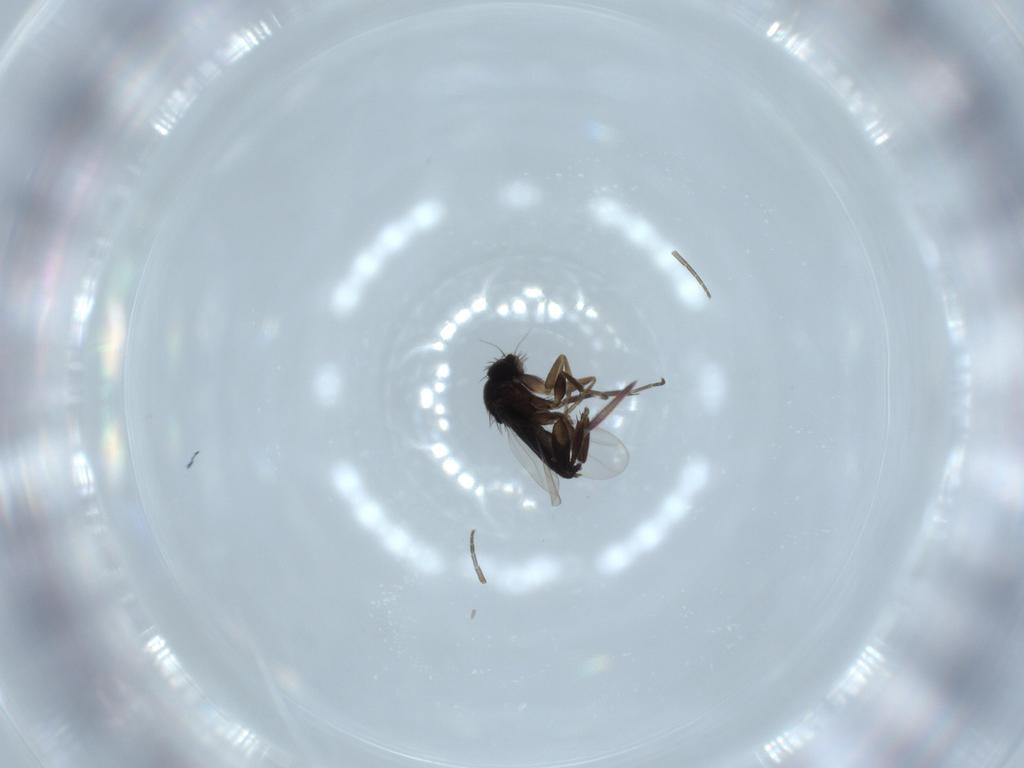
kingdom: Animalia
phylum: Arthropoda
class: Insecta
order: Diptera
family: Phoridae
